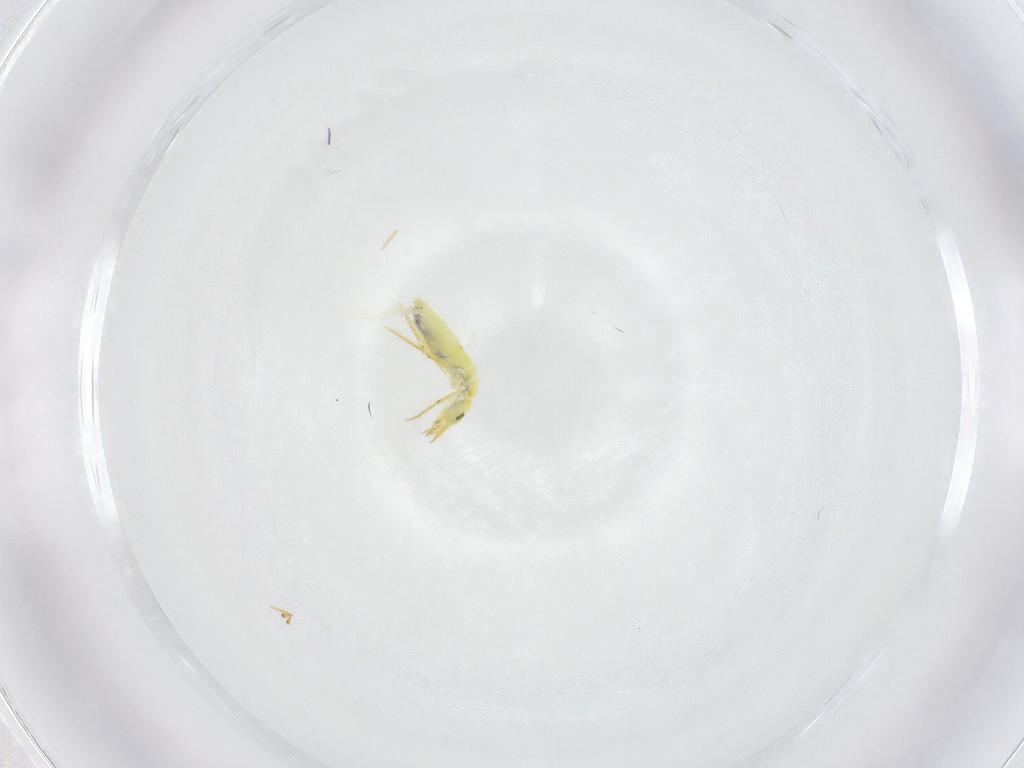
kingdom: Animalia
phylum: Arthropoda
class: Collembola
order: Entomobryomorpha
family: Entomobryidae
